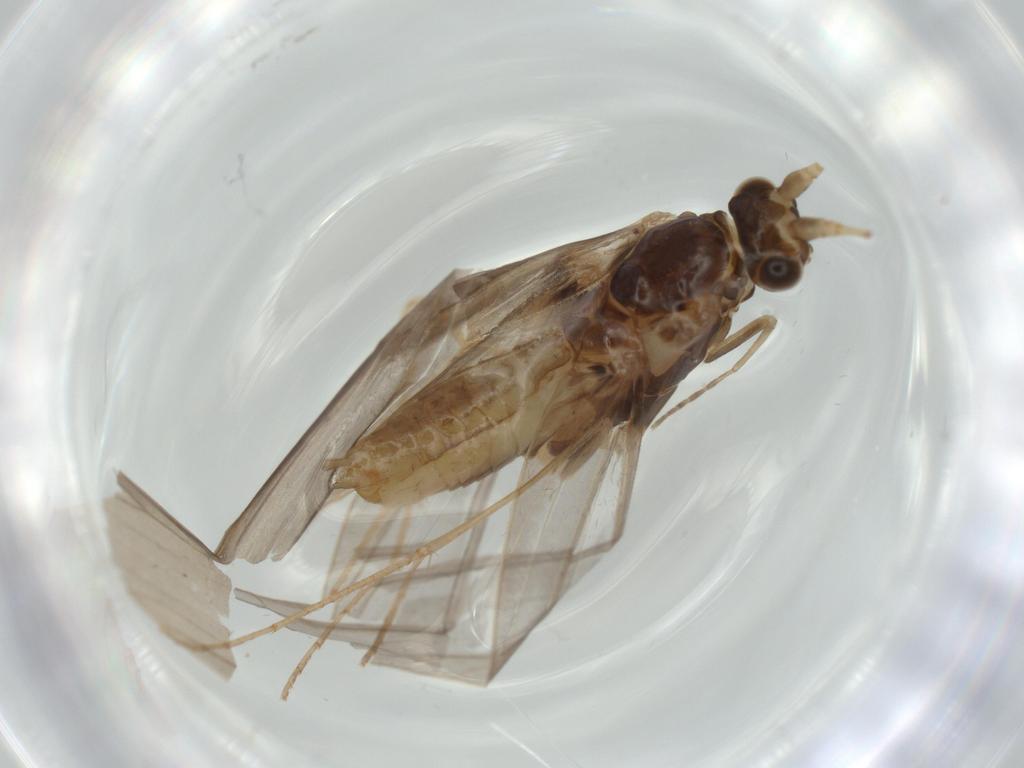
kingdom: Animalia
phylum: Arthropoda
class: Insecta
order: Trichoptera
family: Leptoceridae
